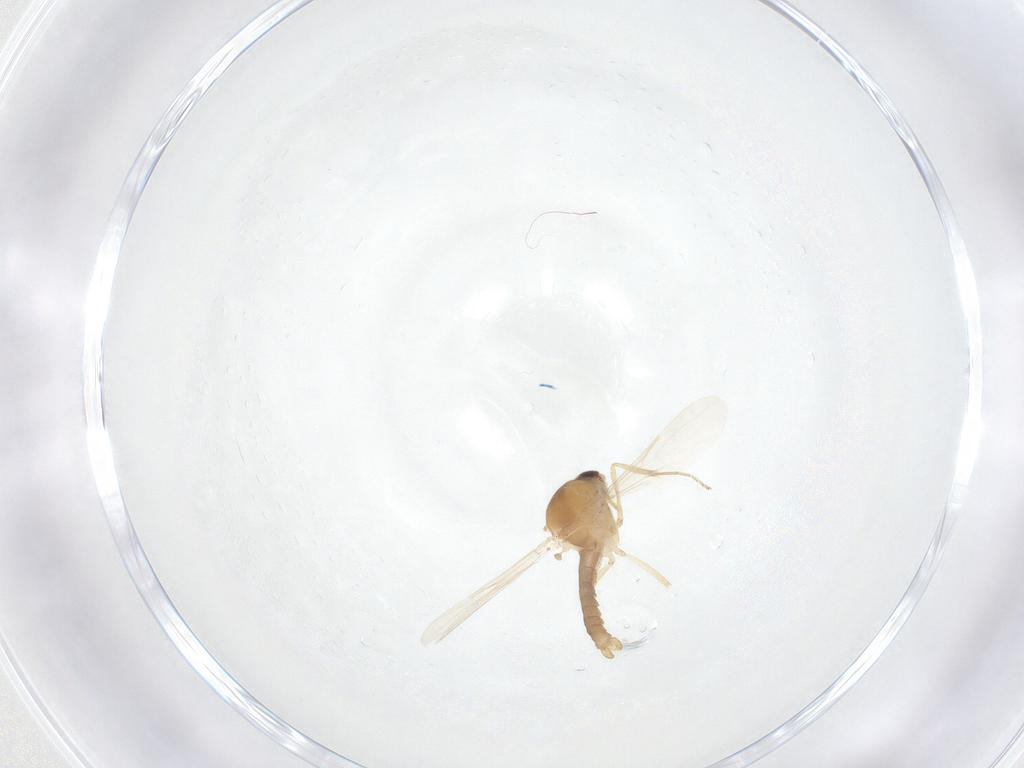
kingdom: Animalia
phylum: Arthropoda
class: Insecta
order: Diptera
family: Ceratopogonidae
